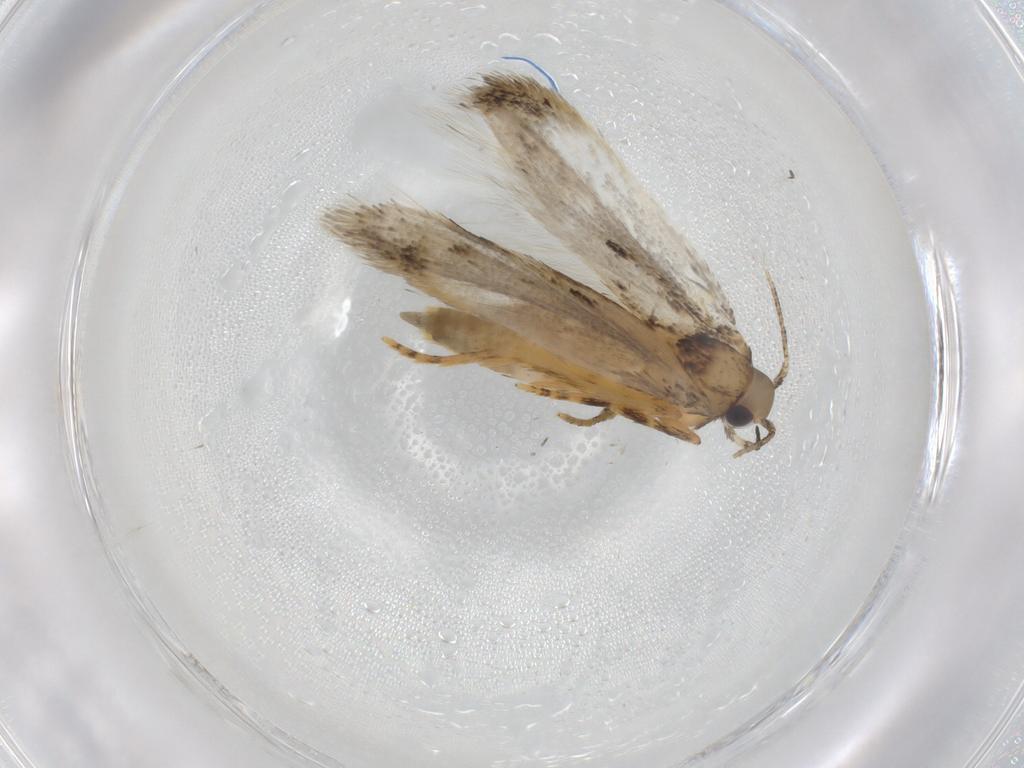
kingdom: Animalia
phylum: Arthropoda
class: Insecta
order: Lepidoptera
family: Autostichidae
